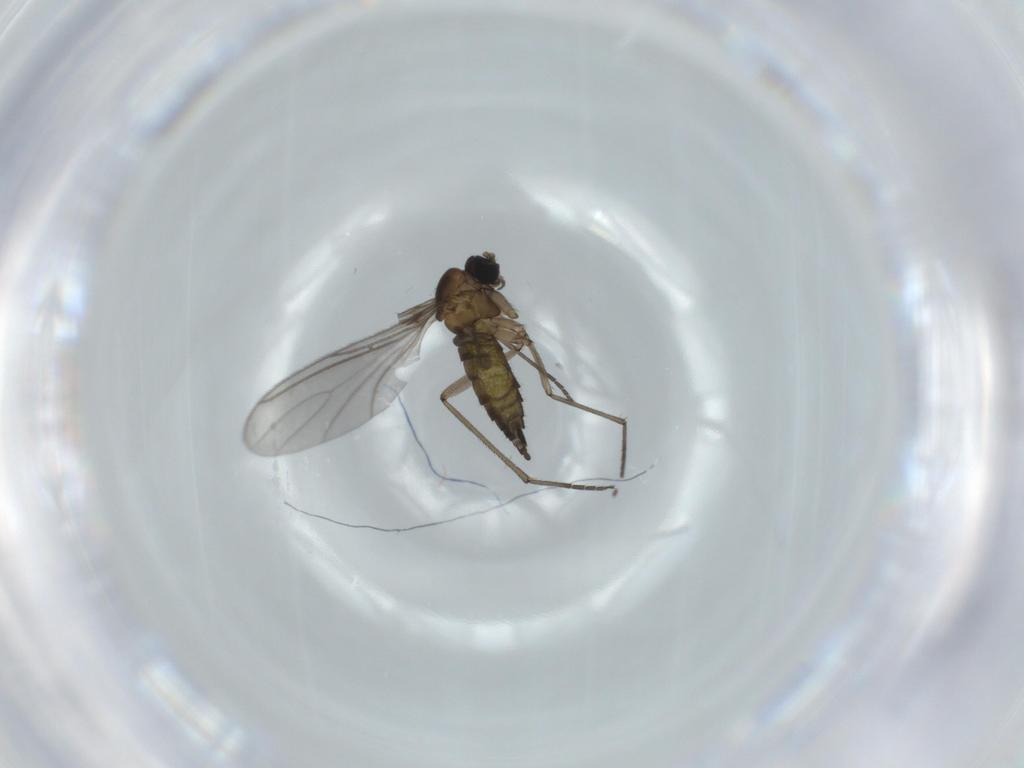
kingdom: Animalia
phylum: Arthropoda
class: Insecta
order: Diptera
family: Sciaridae
